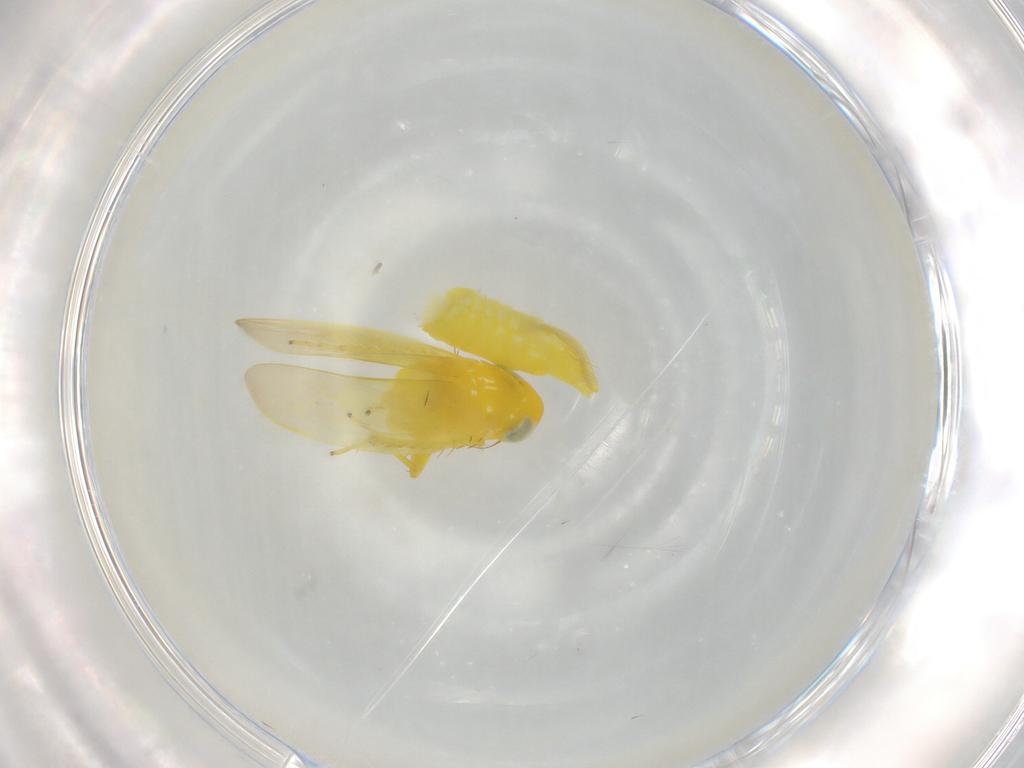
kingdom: Animalia
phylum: Arthropoda
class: Insecta
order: Hemiptera
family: Cicadellidae
